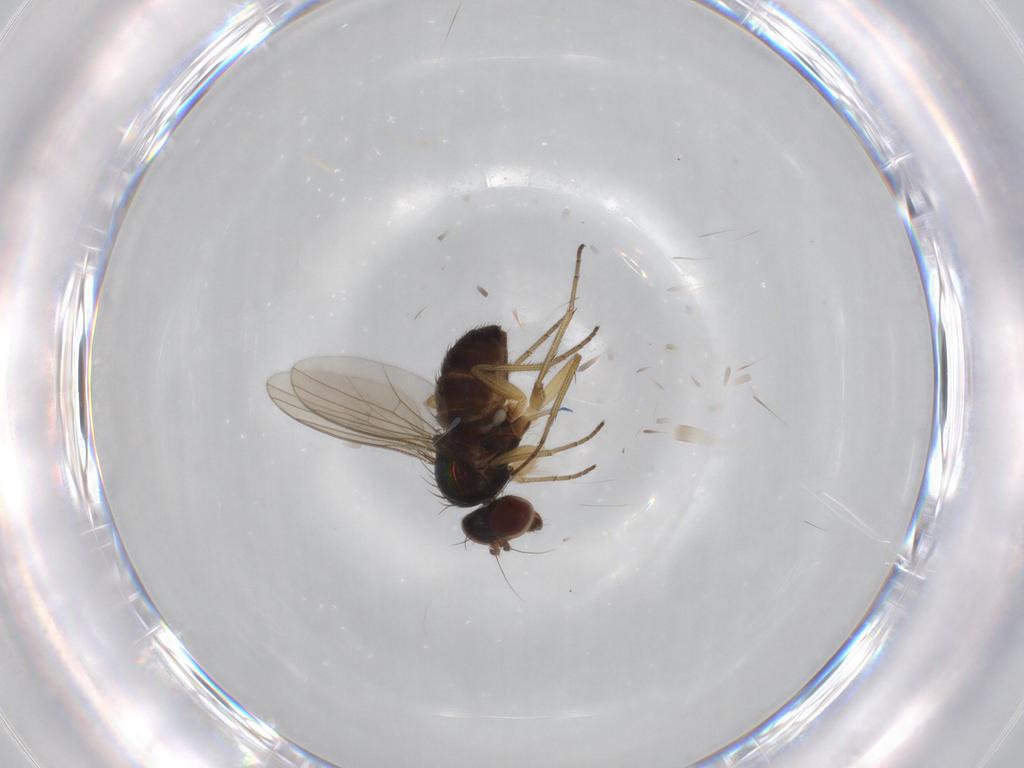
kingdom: Animalia
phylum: Arthropoda
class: Insecta
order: Diptera
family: Dolichopodidae
